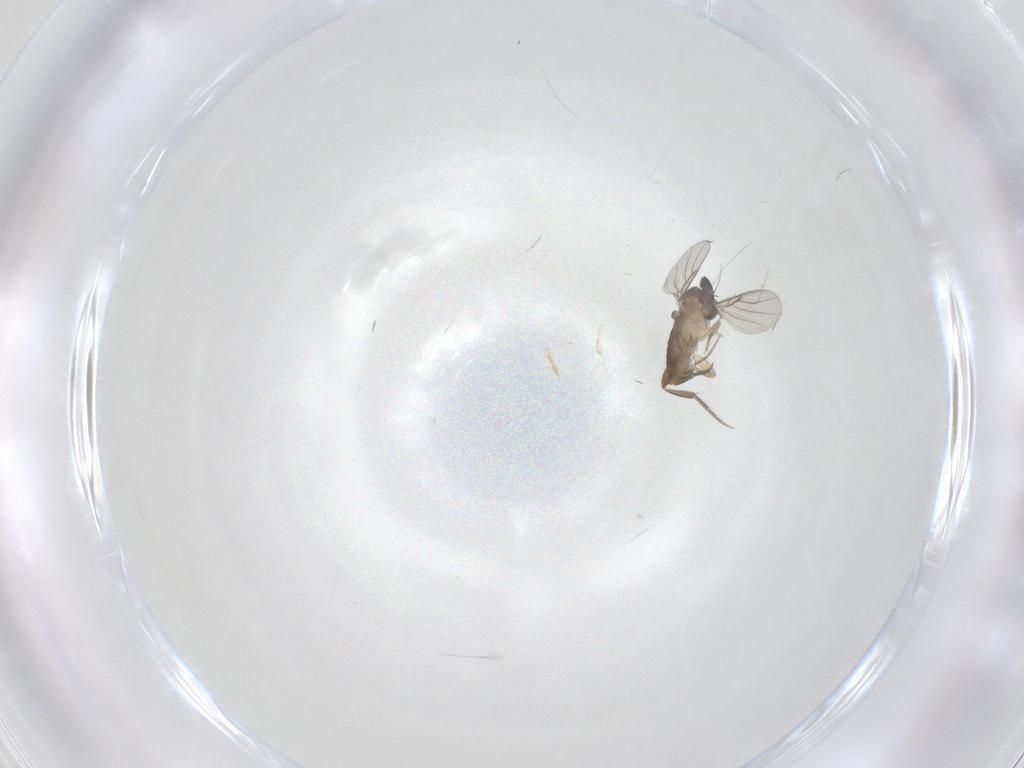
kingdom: Animalia
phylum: Arthropoda
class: Insecta
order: Diptera
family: Phoridae
